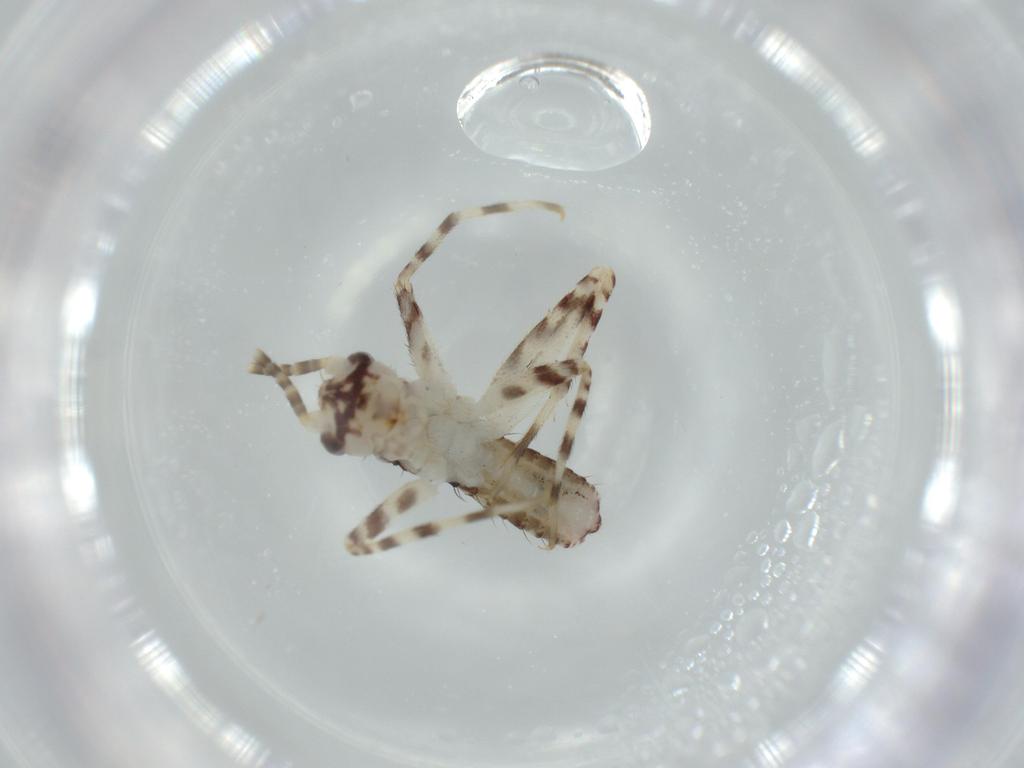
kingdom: Animalia
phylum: Arthropoda
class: Insecta
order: Orthoptera
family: Gryllidae
